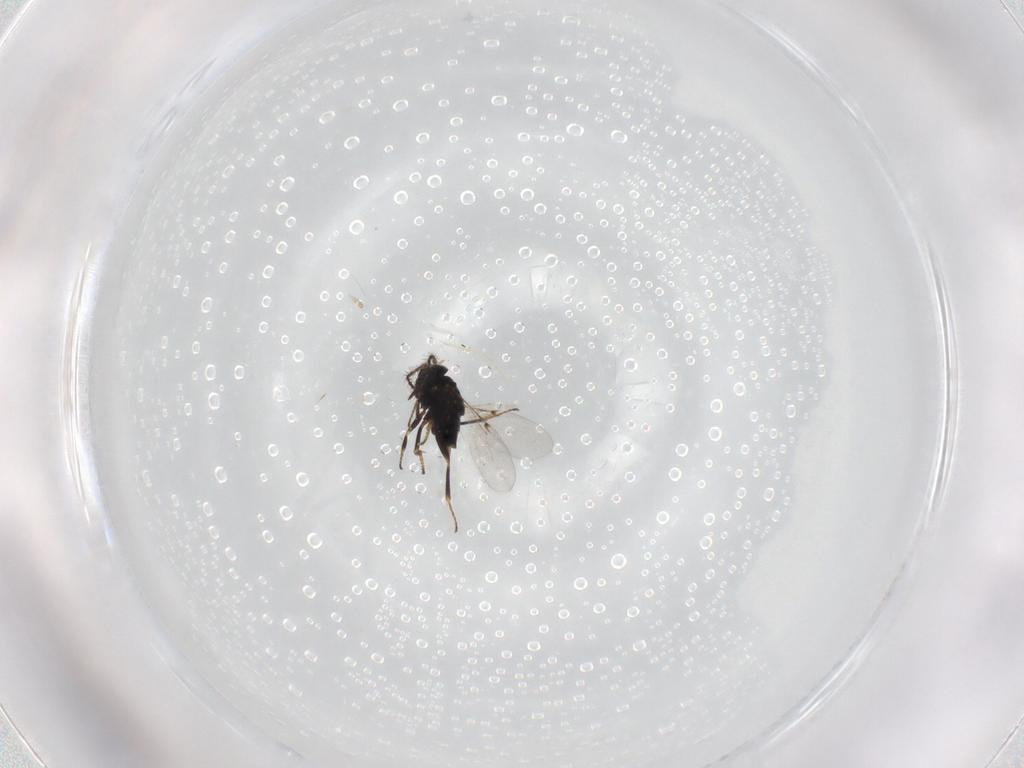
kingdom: Animalia
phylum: Arthropoda
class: Insecta
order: Hymenoptera
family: Encyrtidae
